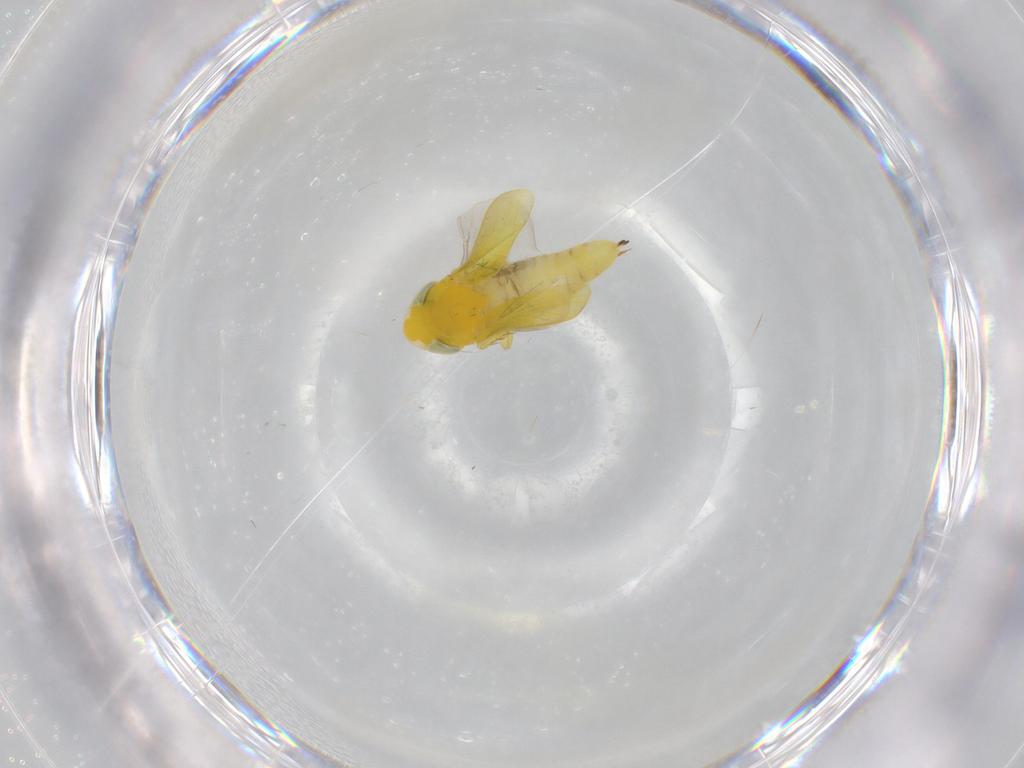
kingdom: Animalia
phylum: Arthropoda
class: Insecta
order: Hemiptera
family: Cicadellidae
